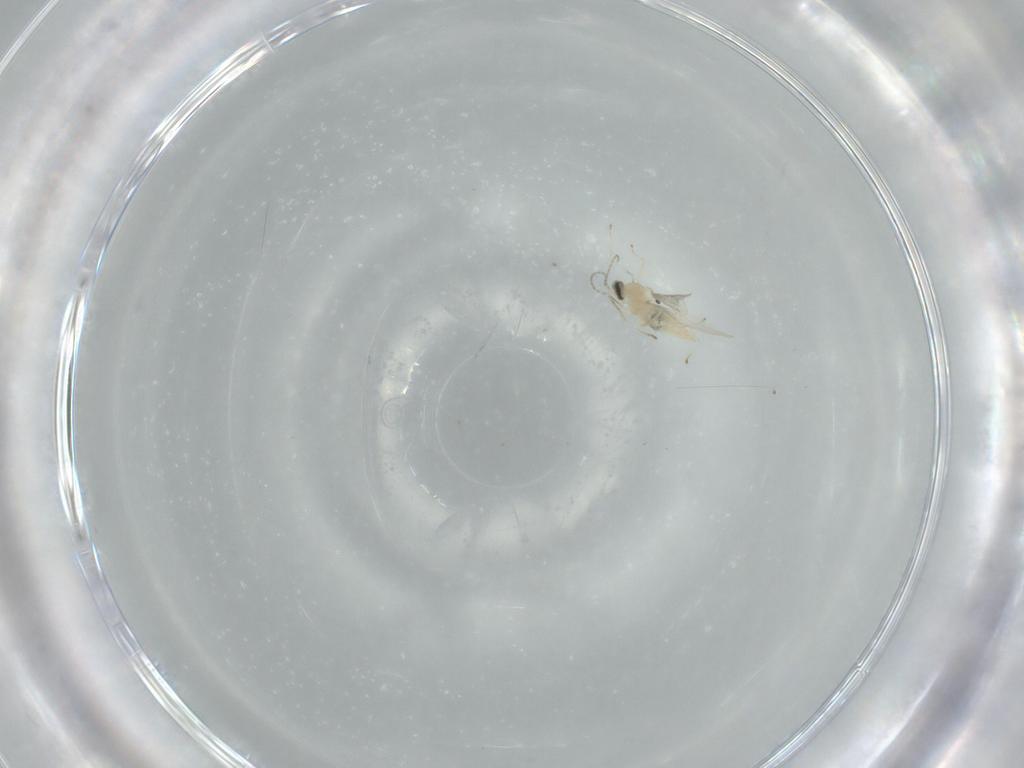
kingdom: Animalia
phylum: Arthropoda
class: Insecta
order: Diptera
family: Cecidomyiidae
